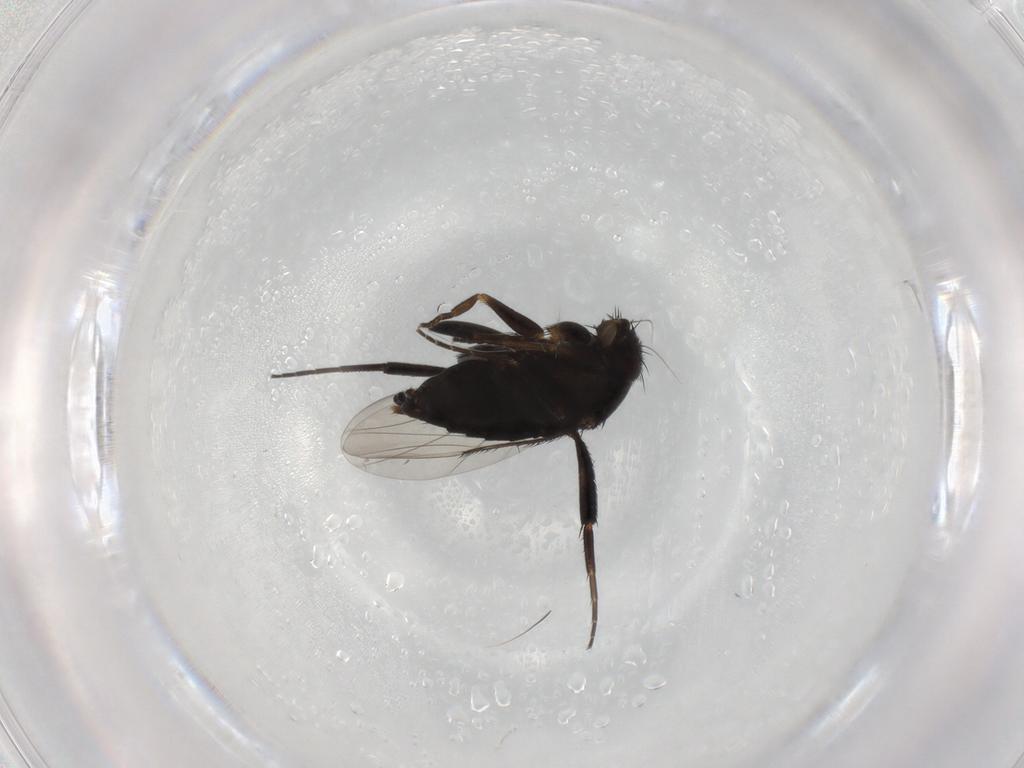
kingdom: Animalia
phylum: Arthropoda
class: Insecta
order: Diptera
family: Phoridae
